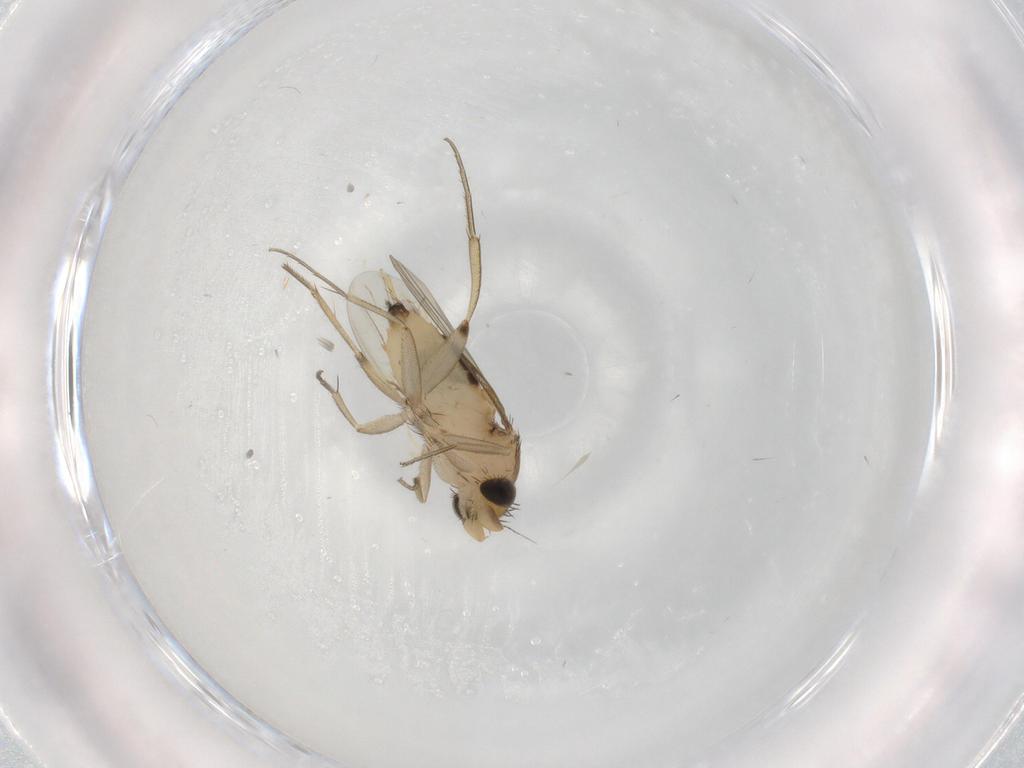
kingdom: Animalia
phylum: Arthropoda
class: Insecta
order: Diptera
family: Phoridae
